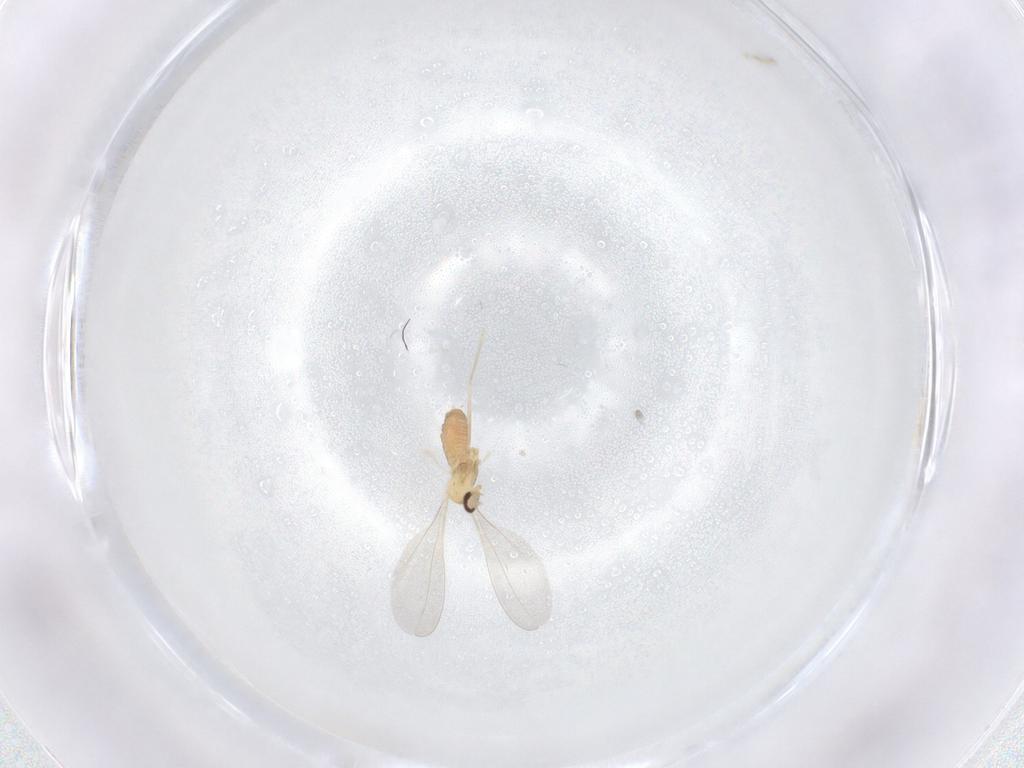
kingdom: Animalia
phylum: Arthropoda
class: Insecta
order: Diptera
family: Cecidomyiidae
